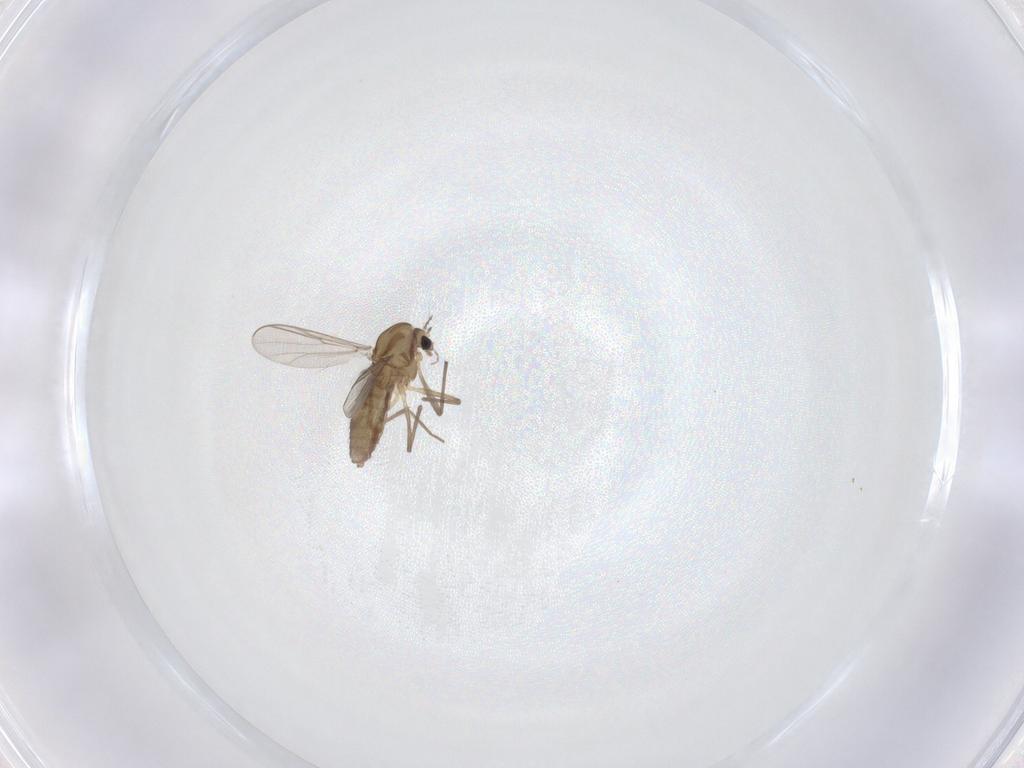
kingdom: Animalia
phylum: Arthropoda
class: Insecta
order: Diptera
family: Chironomidae
